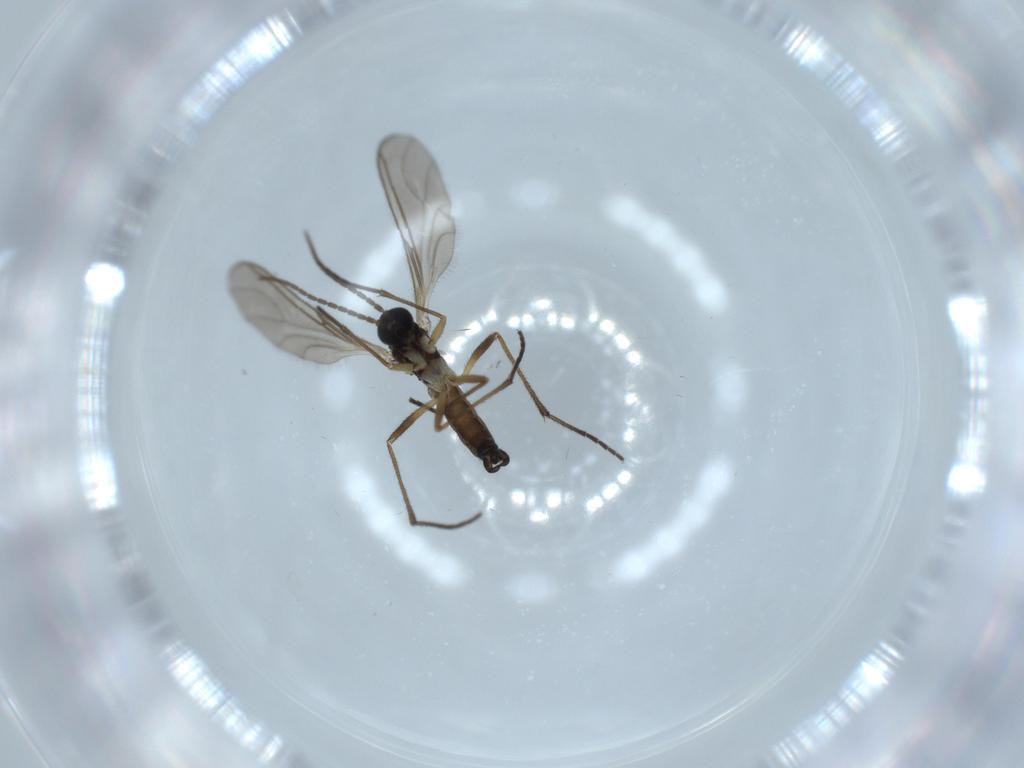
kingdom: Animalia
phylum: Arthropoda
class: Insecta
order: Diptera
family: Sciaridae
